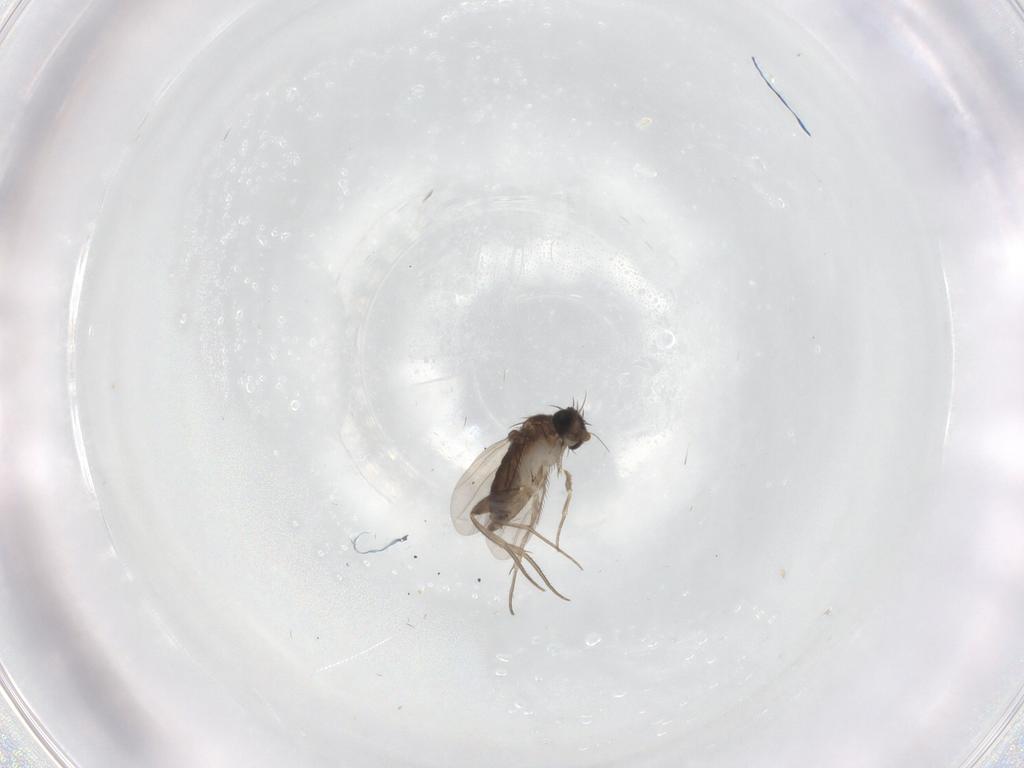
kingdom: Animalia
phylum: Arthropoda
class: Insecta
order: Diptera
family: Phoridae
